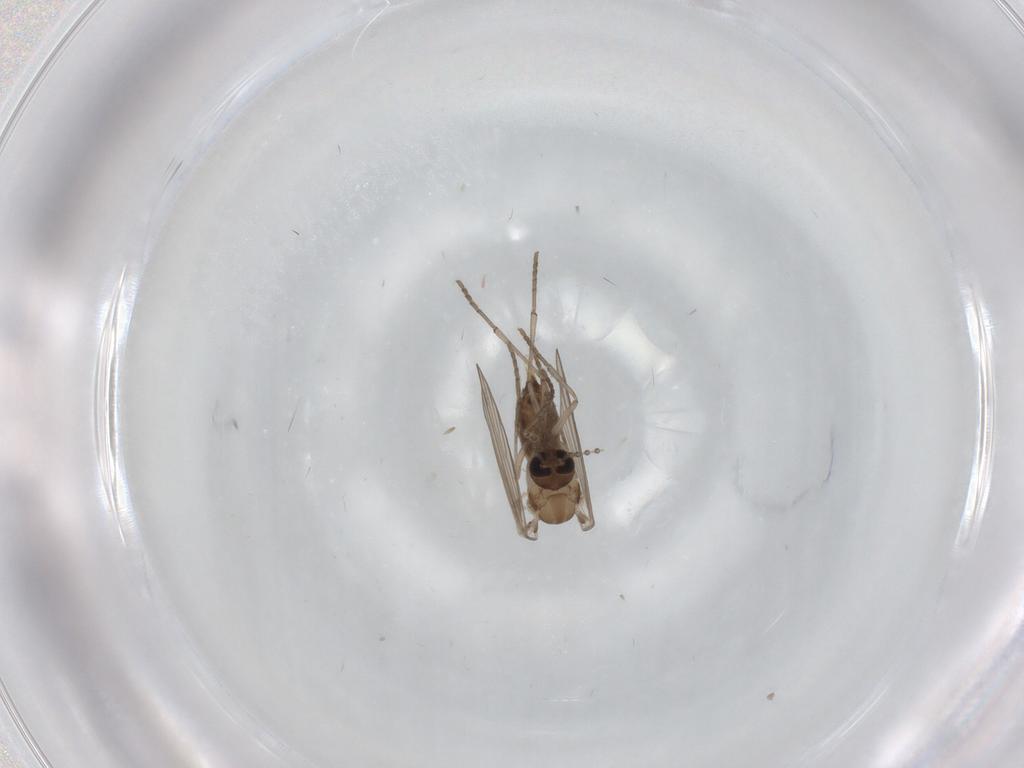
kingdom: Animalia
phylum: Arthropoda
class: Insecta
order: Diptera
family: Psychodidae
